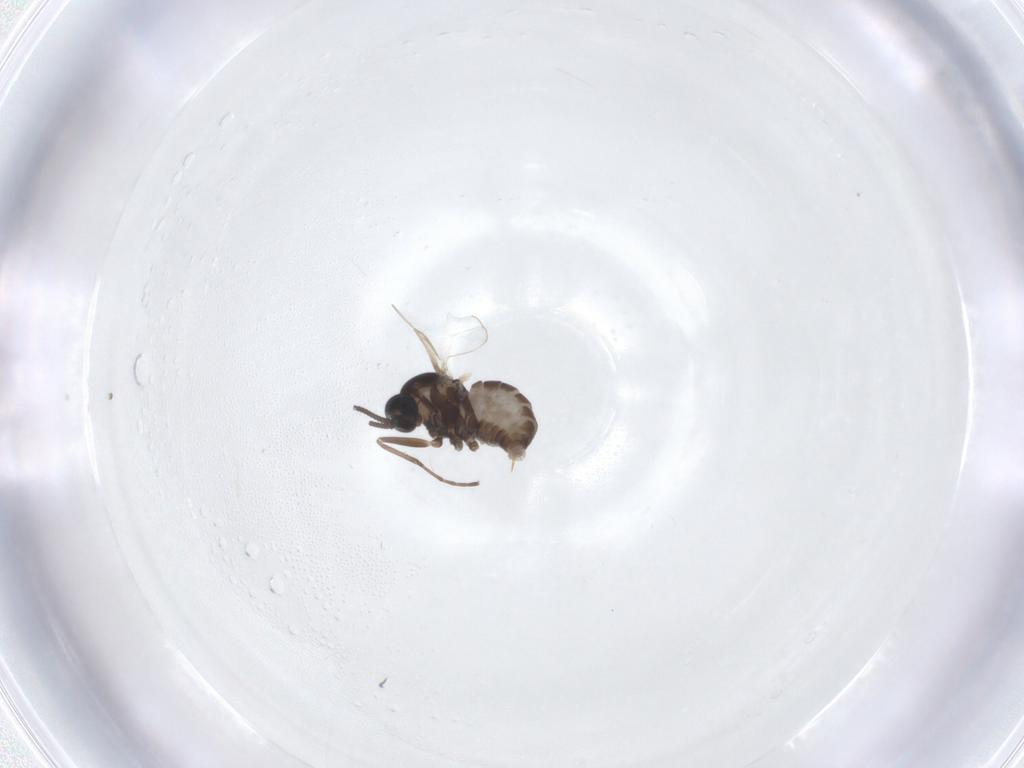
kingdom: Animalia
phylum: Arthropoda
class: Insecta
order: Diptera
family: Cecidomyiidae
